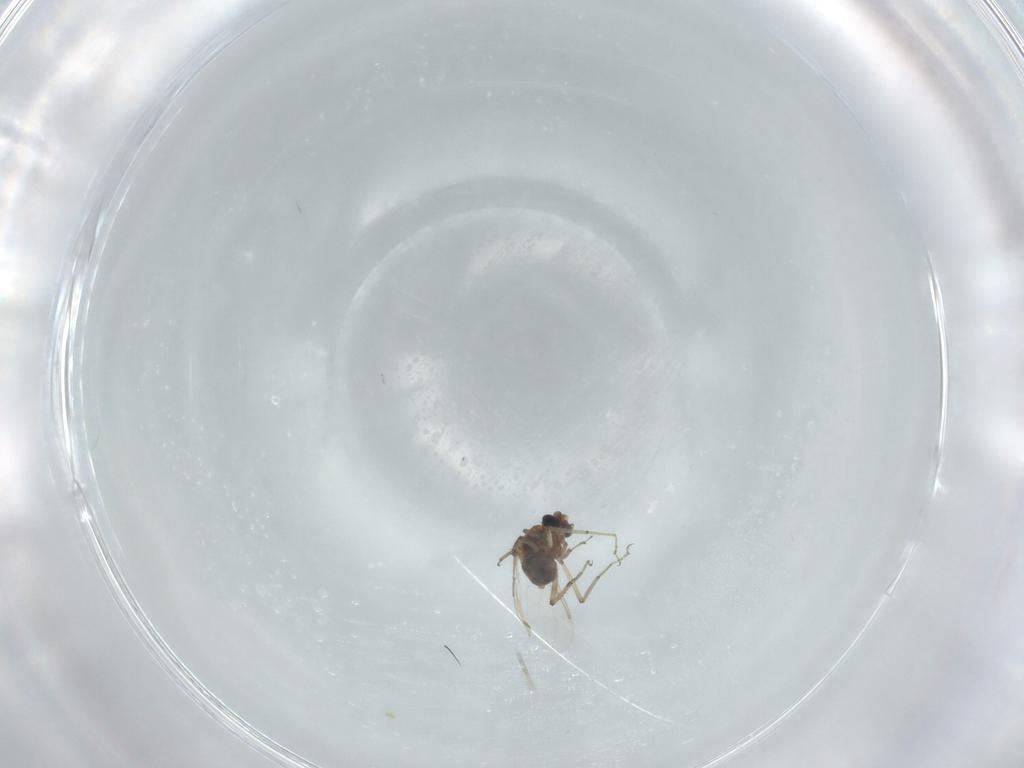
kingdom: Animalia
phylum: Arthropoda
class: Insecta
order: Diptera
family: Ceratopogonidae
